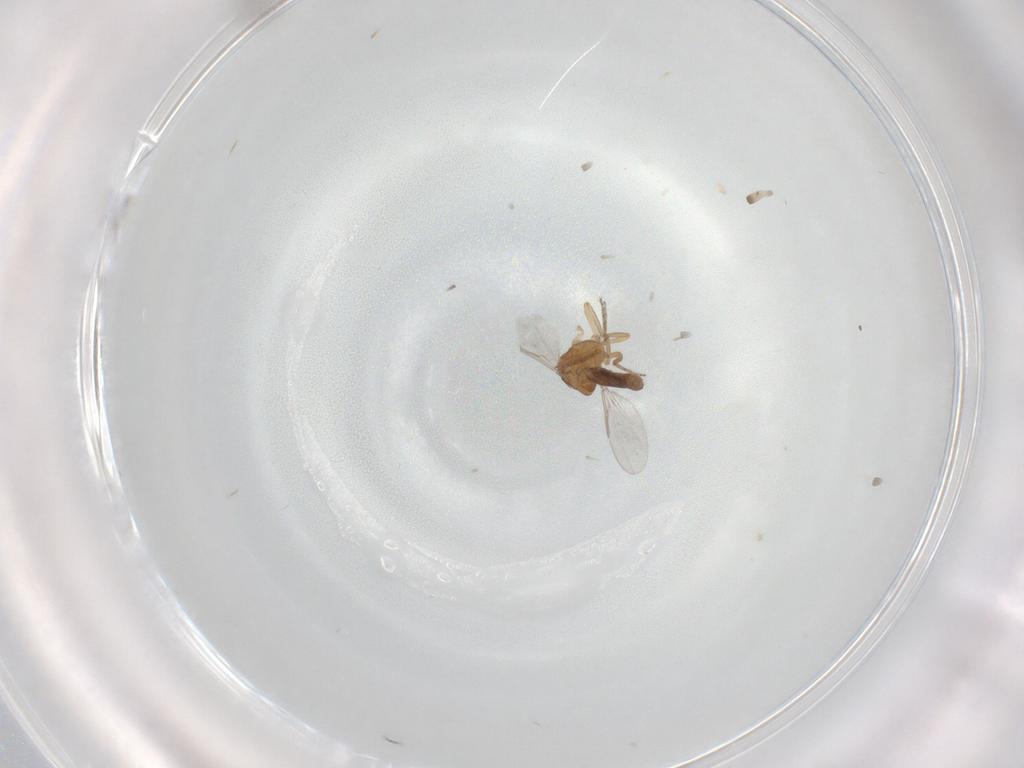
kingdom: Animalia
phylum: Arthropoda
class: Insecta
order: Diptera
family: Ceratopogonidae
